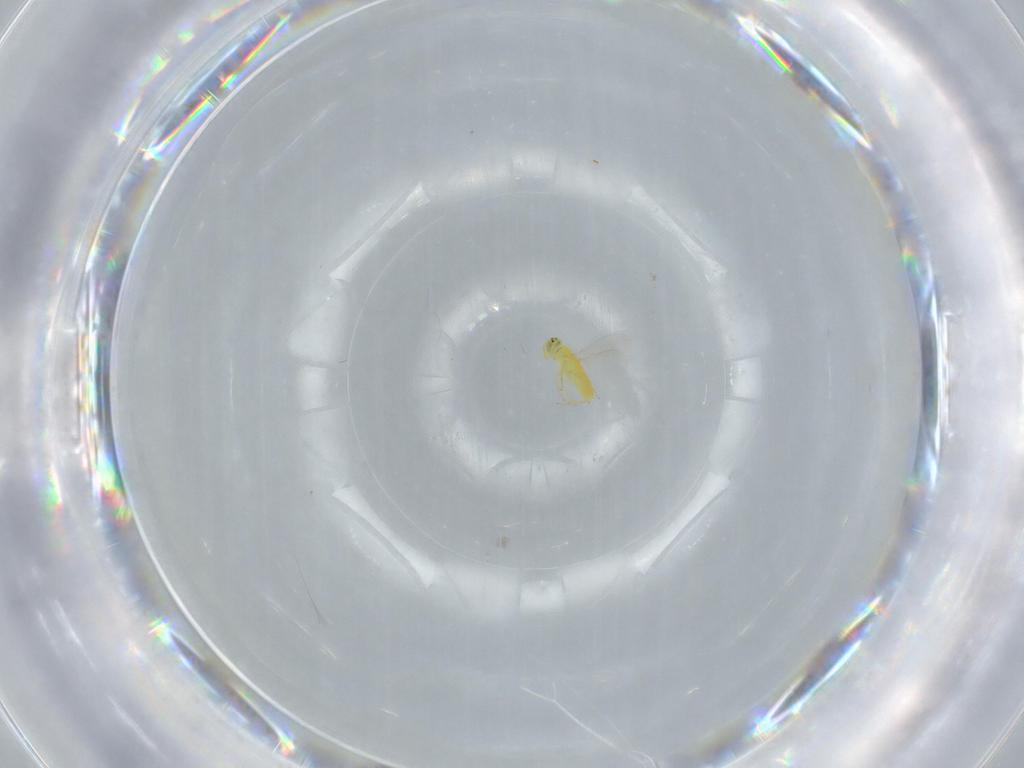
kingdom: Animalia
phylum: Arthropoda
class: Insecta
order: Hymenoptera
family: Aphelinidae
